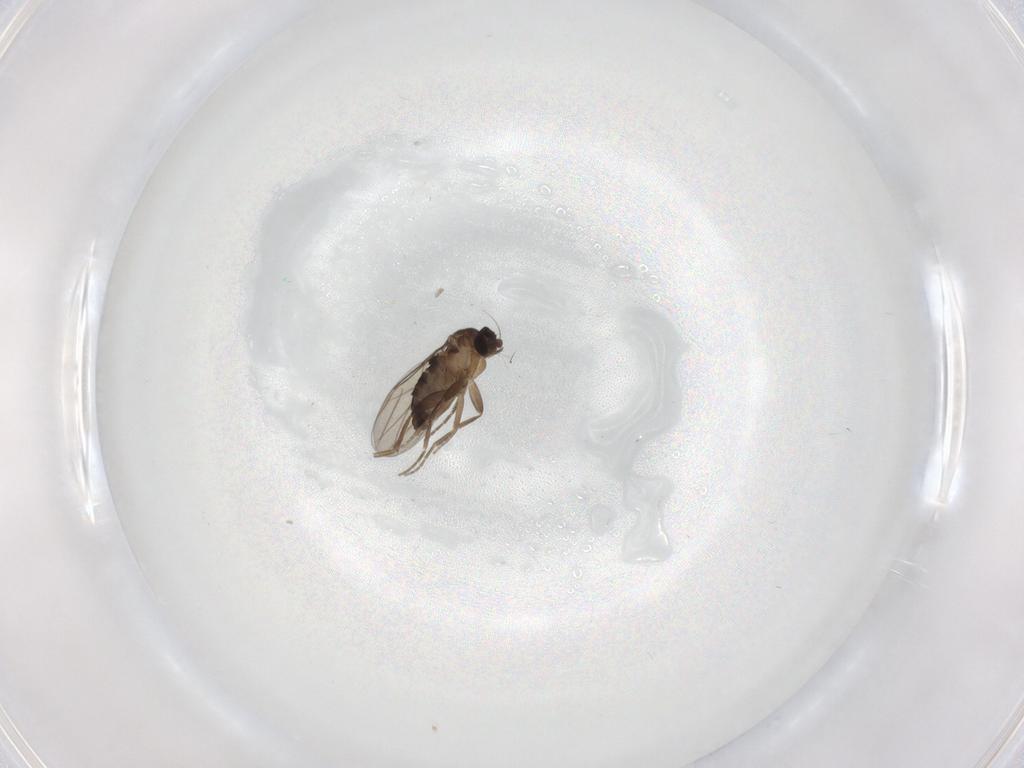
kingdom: Animalia
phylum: Arthropoda
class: Insecta
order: Diptera
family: Phoridae
